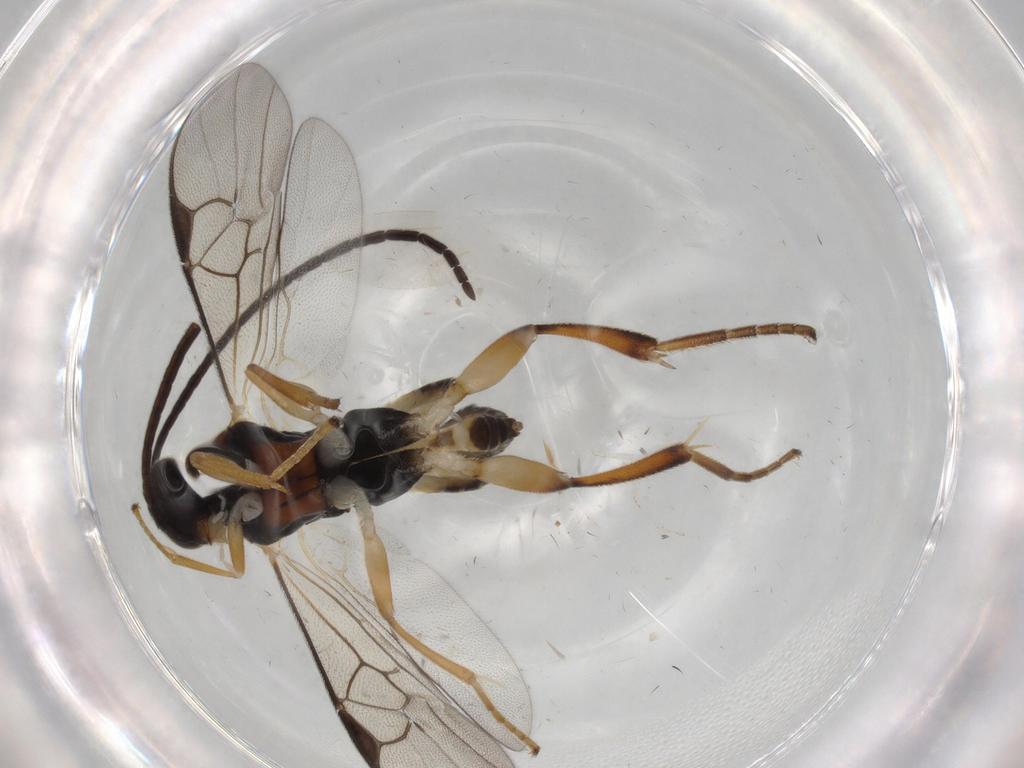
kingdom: Animalia
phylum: Arthropoda
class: Insecta
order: Hymenoptera
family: Braconidae
